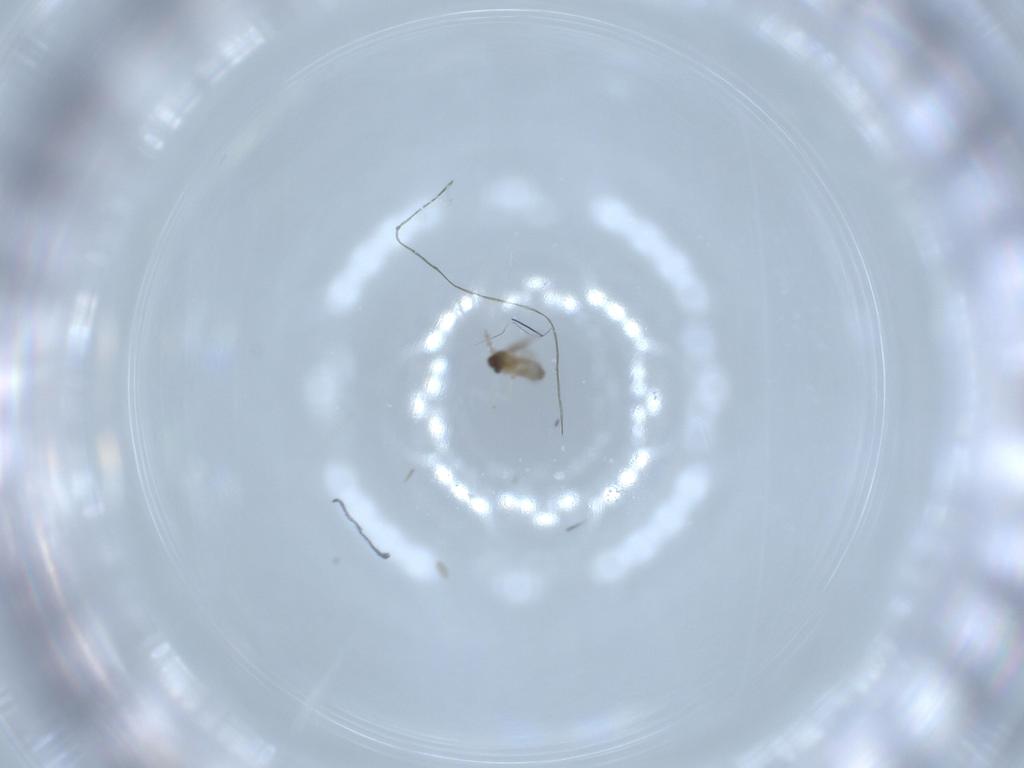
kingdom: Animalia
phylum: Arthropoda
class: Insecta
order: Diptera
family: Cecidomyiidae
